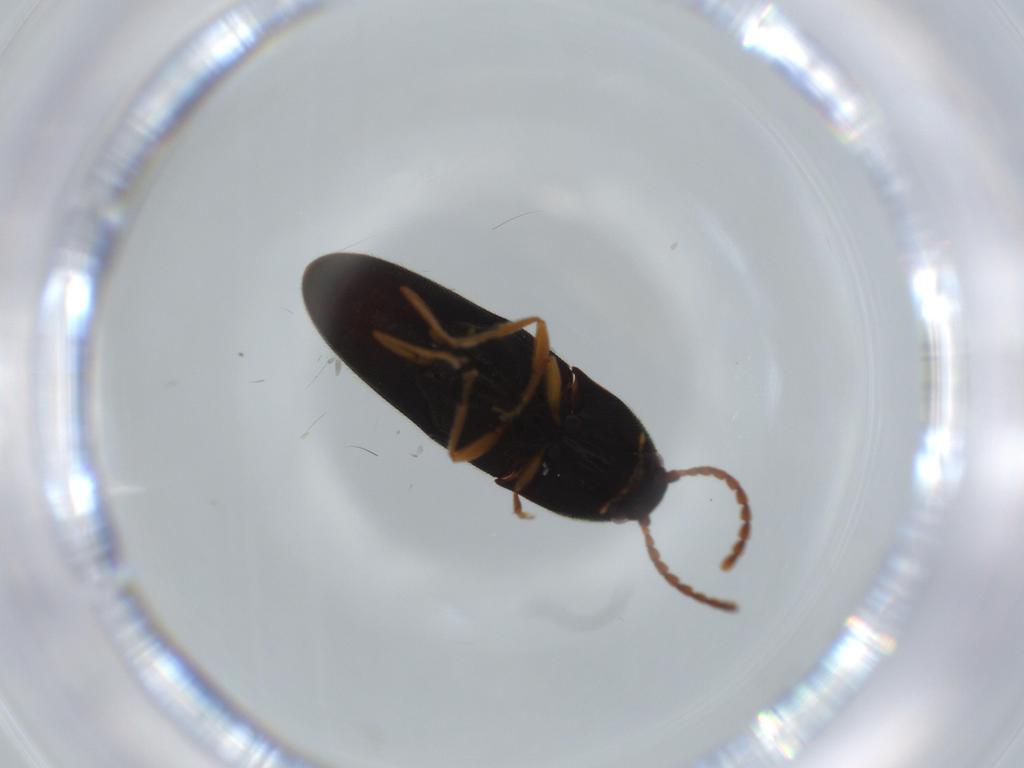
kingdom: Animalia
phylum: Arthropoda
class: Insecta
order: Coleoptera
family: Elateridae
